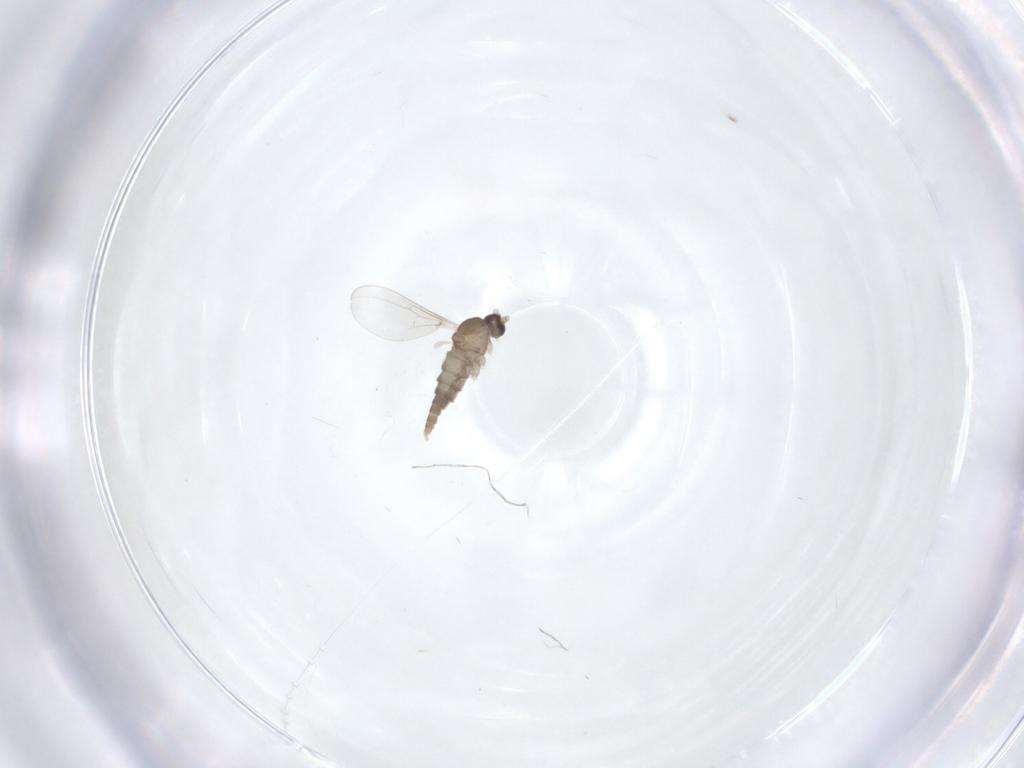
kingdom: Animalia
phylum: Arthropoda
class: Insecta
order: Diptera
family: Cecidomyiidae
